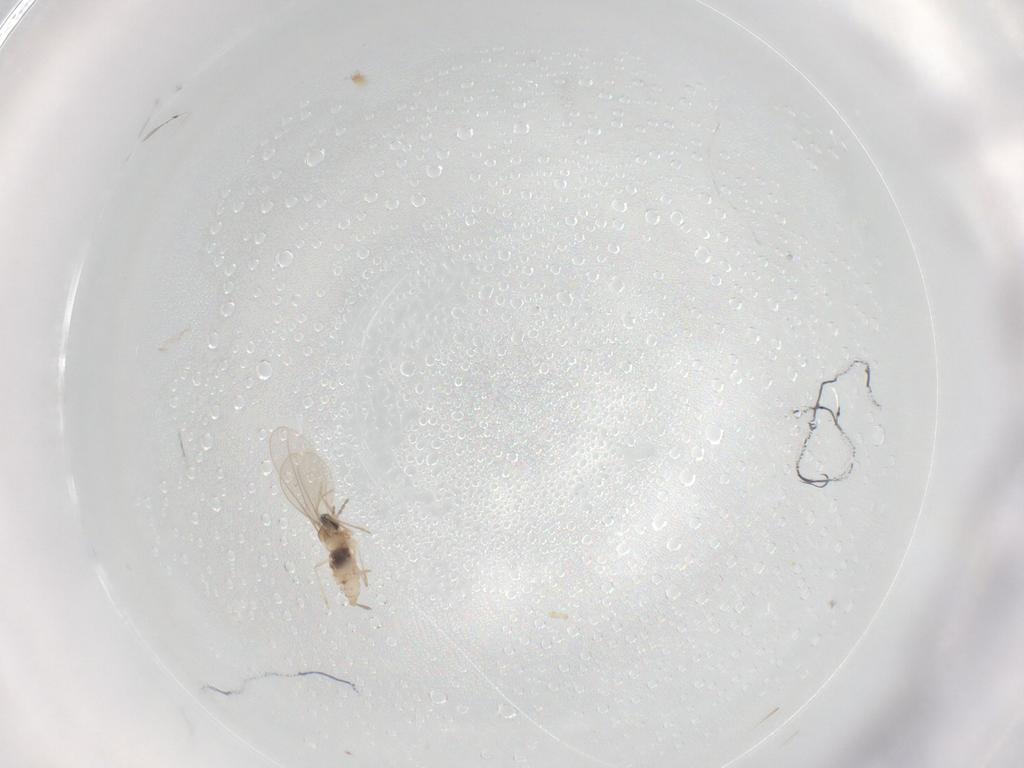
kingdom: Animalia
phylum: Arthropoda
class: Insecta
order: Diptera
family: Cecidomyiidae
